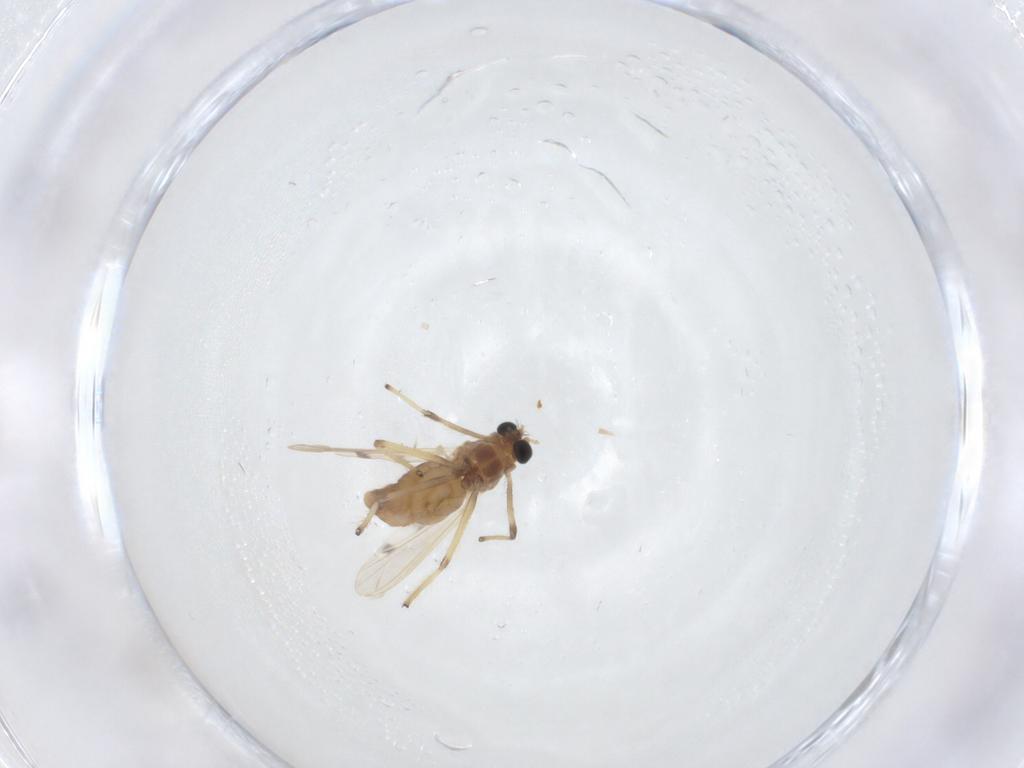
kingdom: Animalia
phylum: Arthropoda
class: Insecta
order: Diptera
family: Chironomidae
